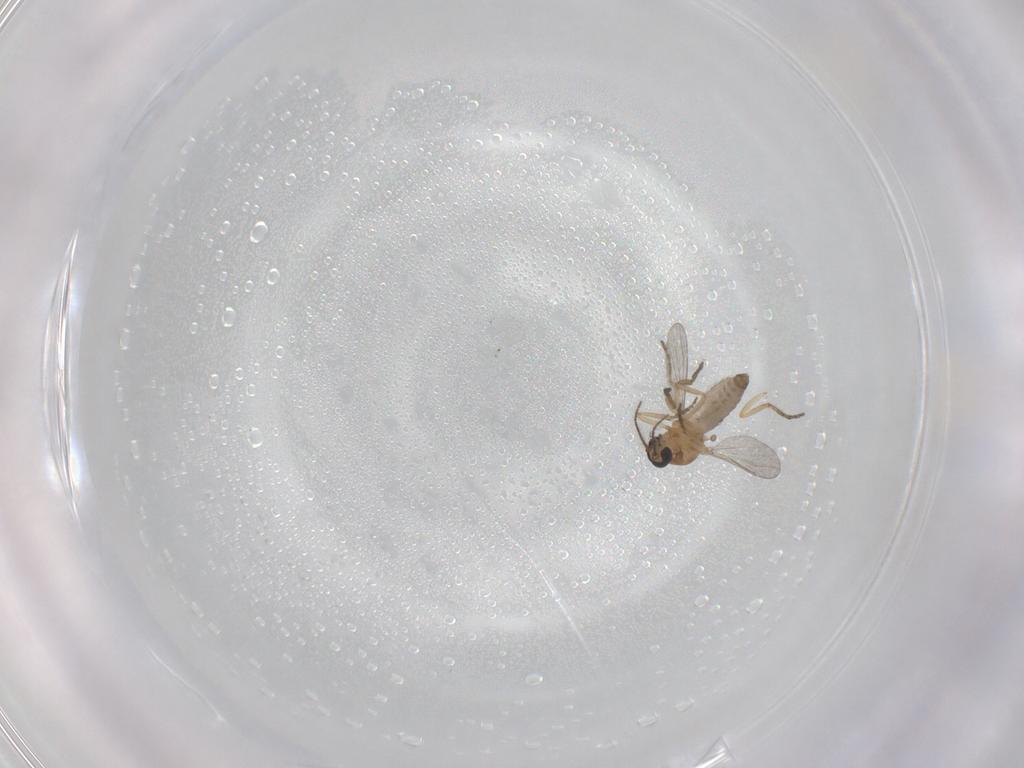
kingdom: Animalia
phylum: Arthropoda
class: Insecta
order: Diptera
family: Cecidomyiidae
